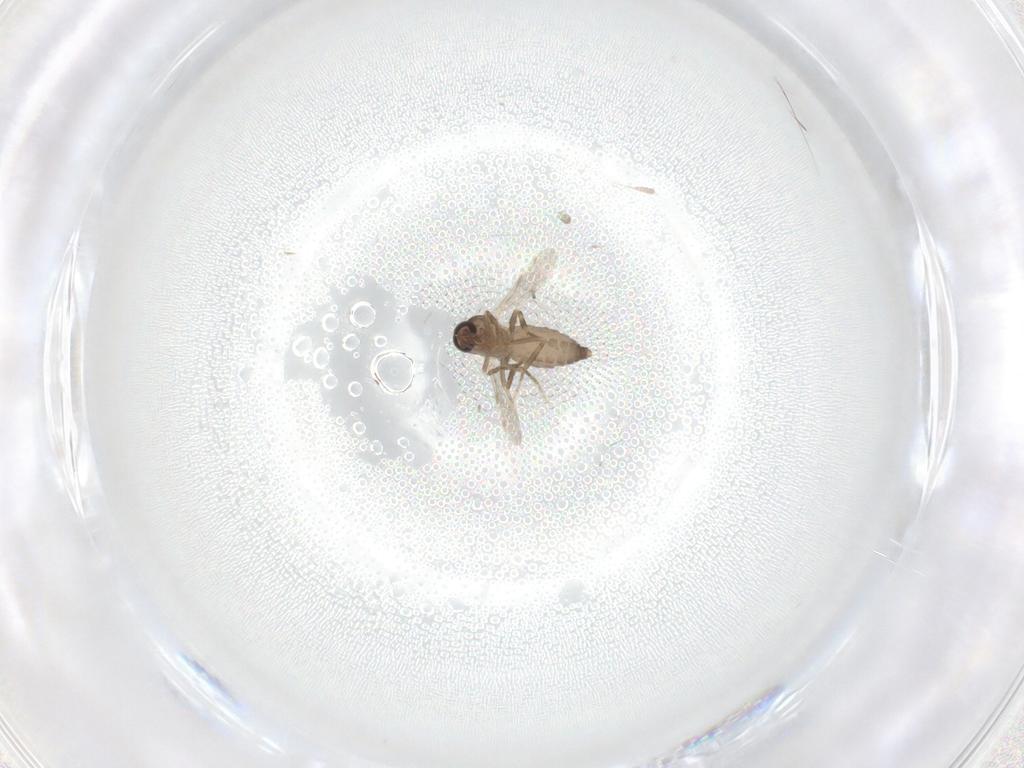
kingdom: Animalia
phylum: Arthropoda
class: Insecta
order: Diptera
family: Ceratopogonidae
